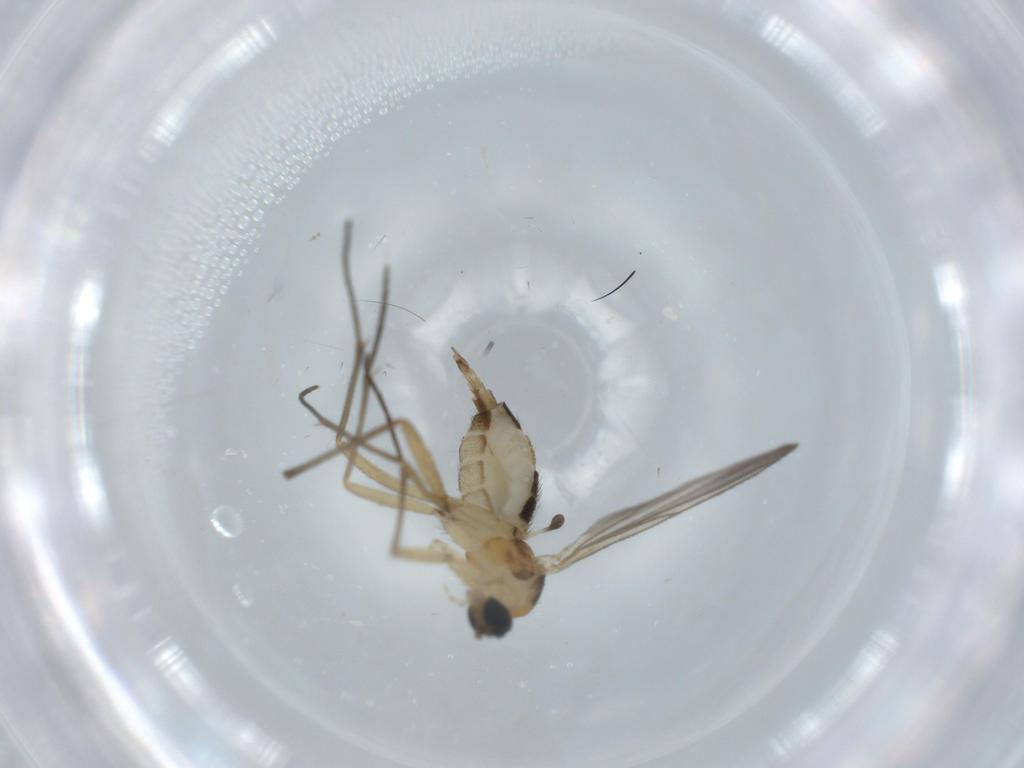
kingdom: Animalia
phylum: Arthropoda
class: Insecta
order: Diptera
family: Sciaridae
